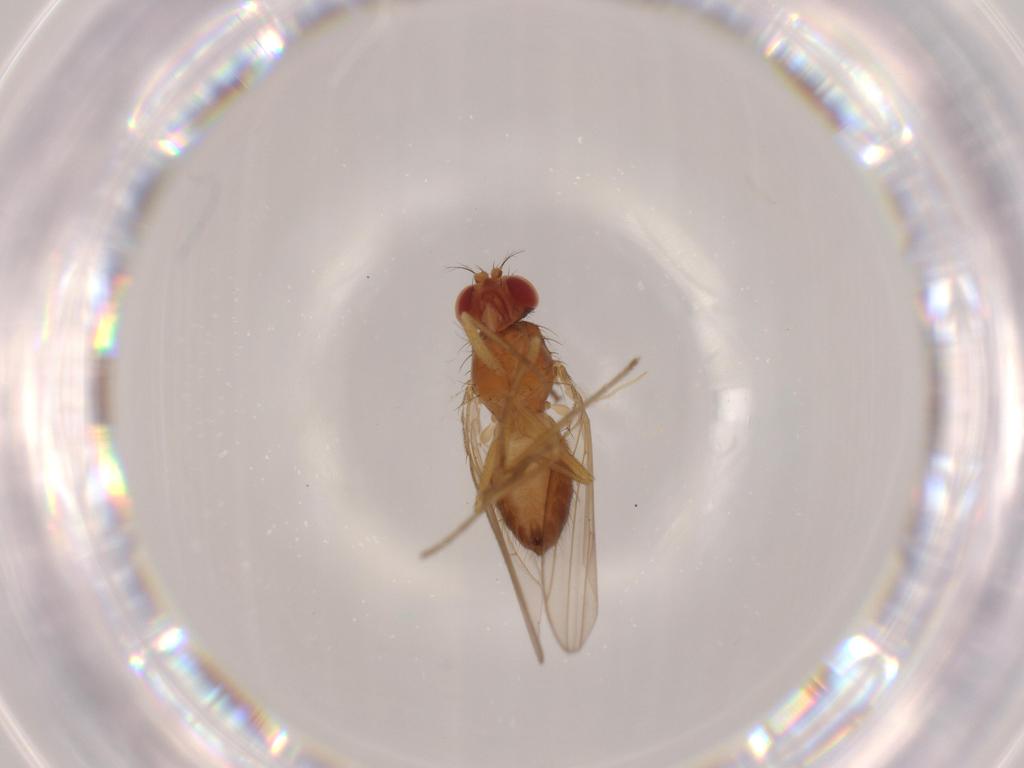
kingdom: Animalia
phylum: Arthropoda
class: Insecta
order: Diptera
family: Drosophilidae
